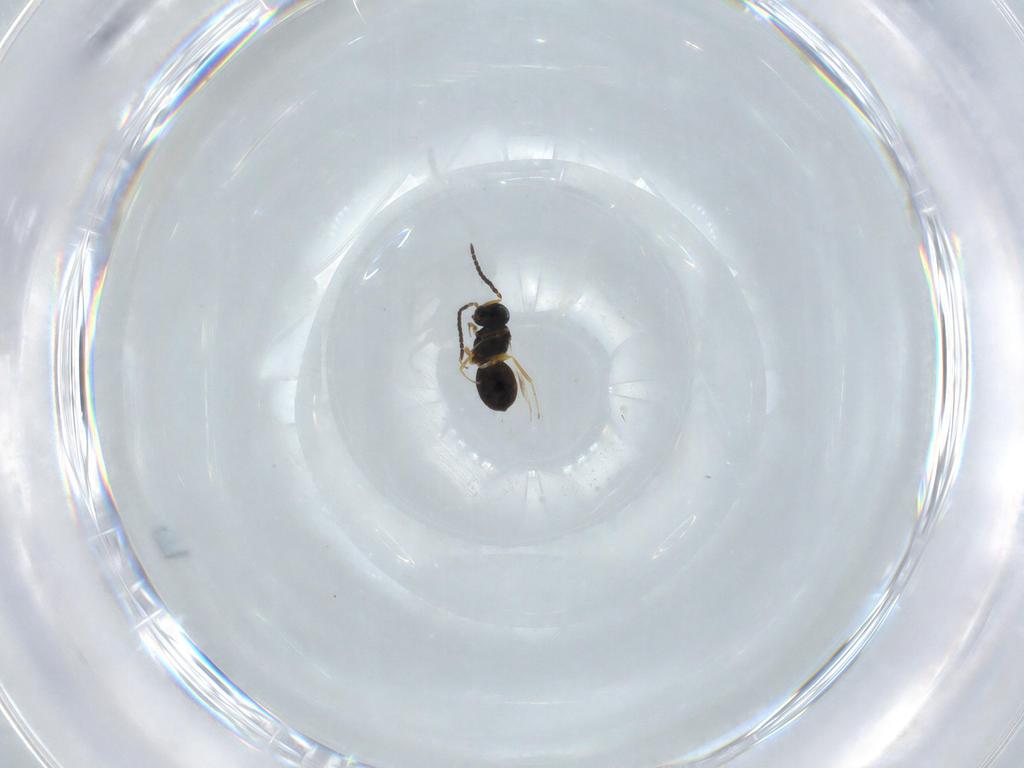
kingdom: Animalia
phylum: Arthropoda
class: Insecta
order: Hymenoptera
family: Scelionidae
